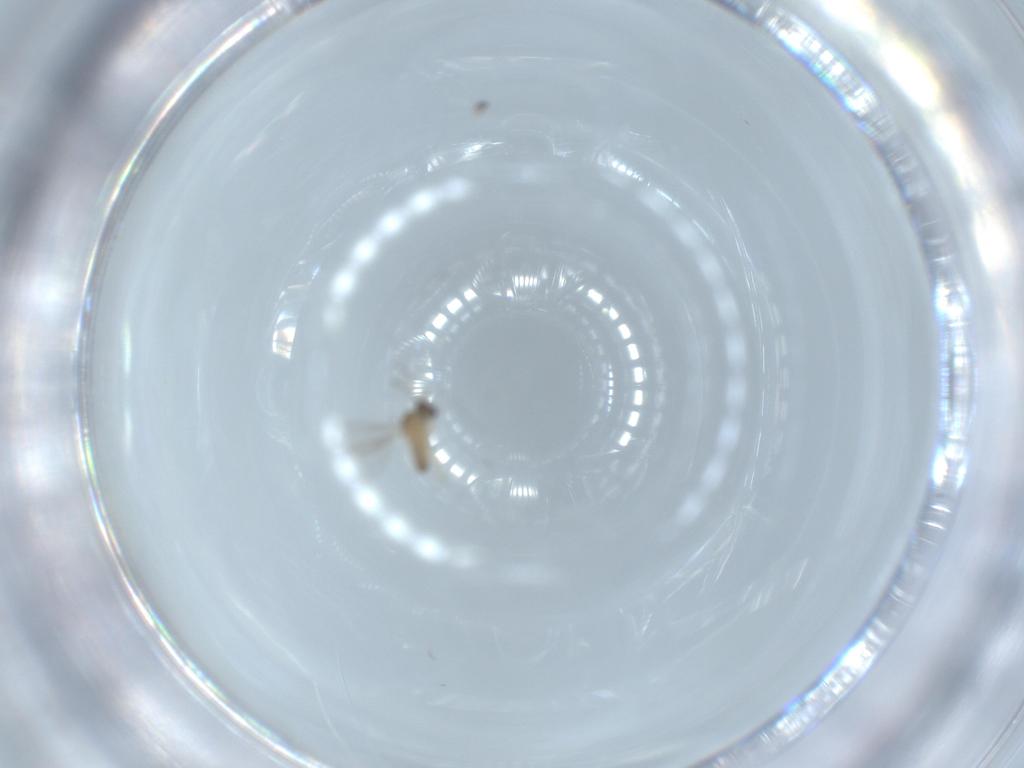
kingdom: Animalia
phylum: Arthropoda
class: Insecta
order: Diptera
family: Cecidomyiidae
